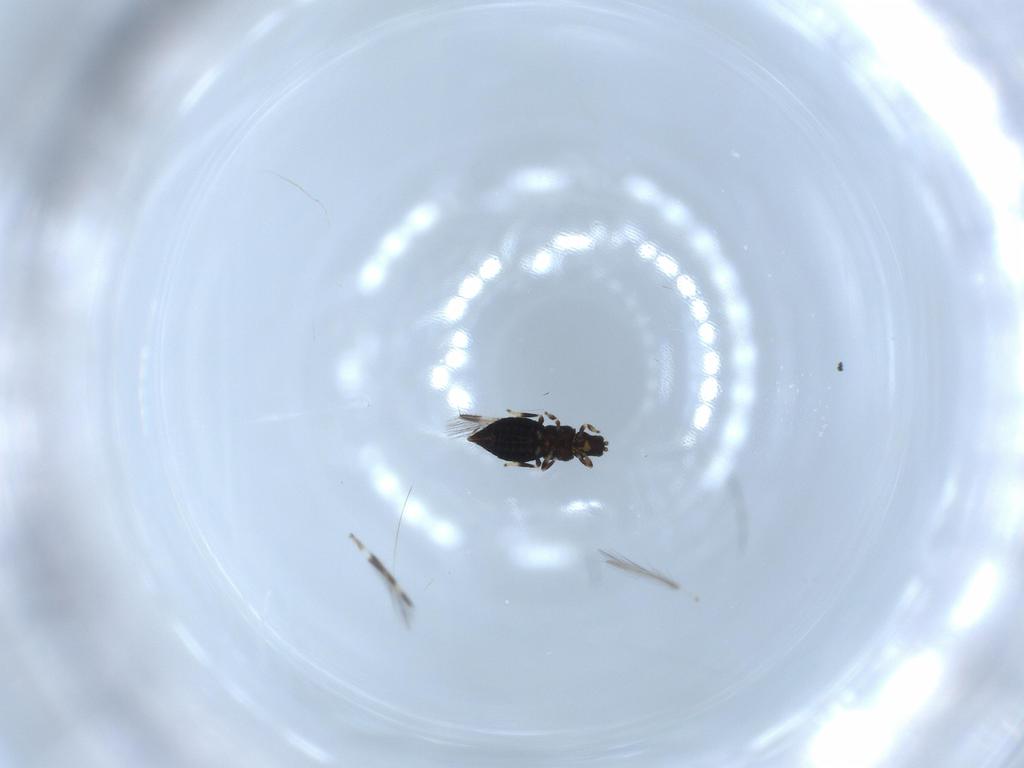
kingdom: Animalia
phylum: Arthropoda
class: Insecta
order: Thysanoptera
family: Thripidae
